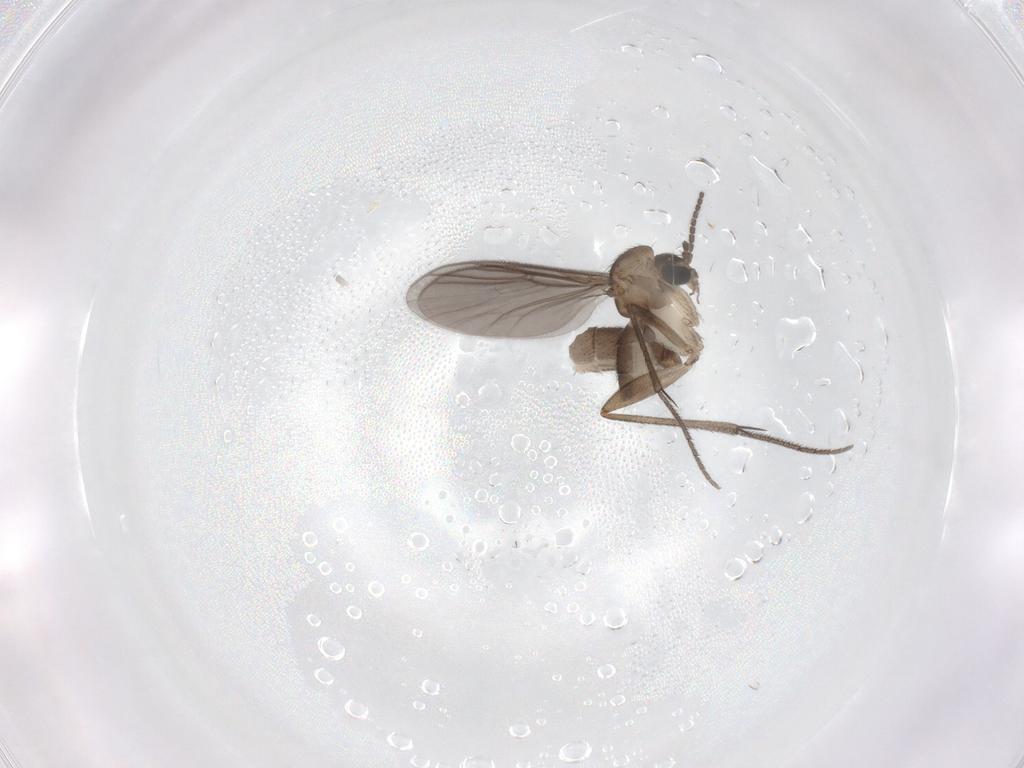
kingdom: Animalia
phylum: Arthropoda
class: Insecta
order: Diptera
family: Mycetophilidae
